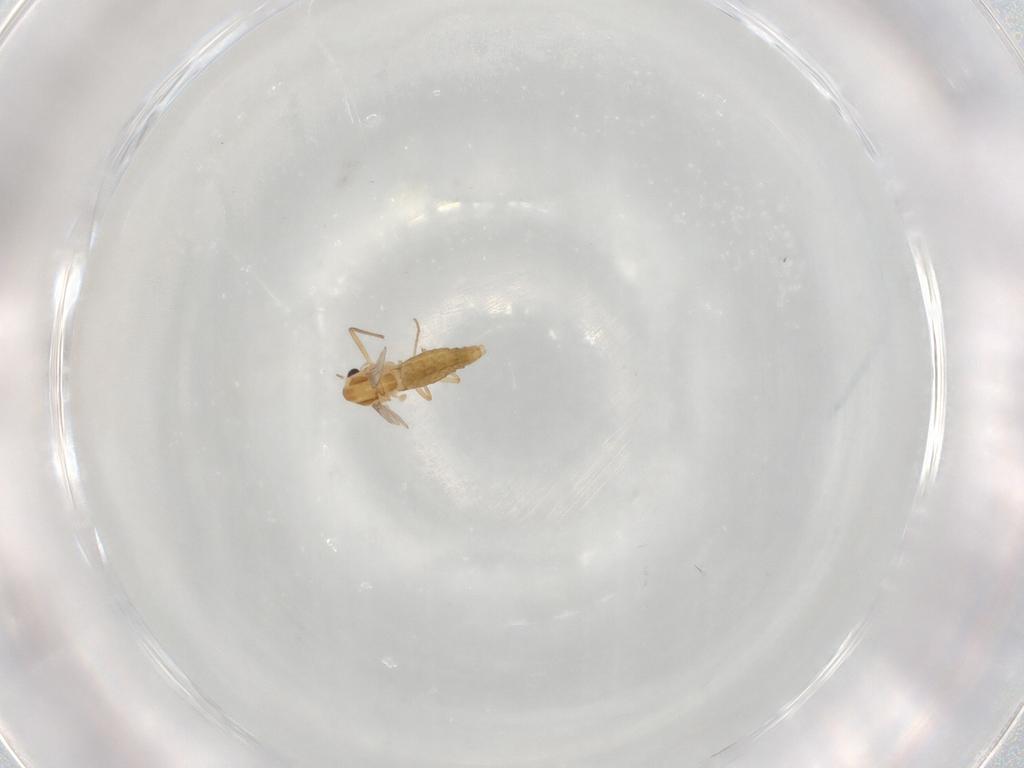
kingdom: Animalia
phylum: Arthropoda
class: Insecta
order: Diptera
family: Chironomidae
